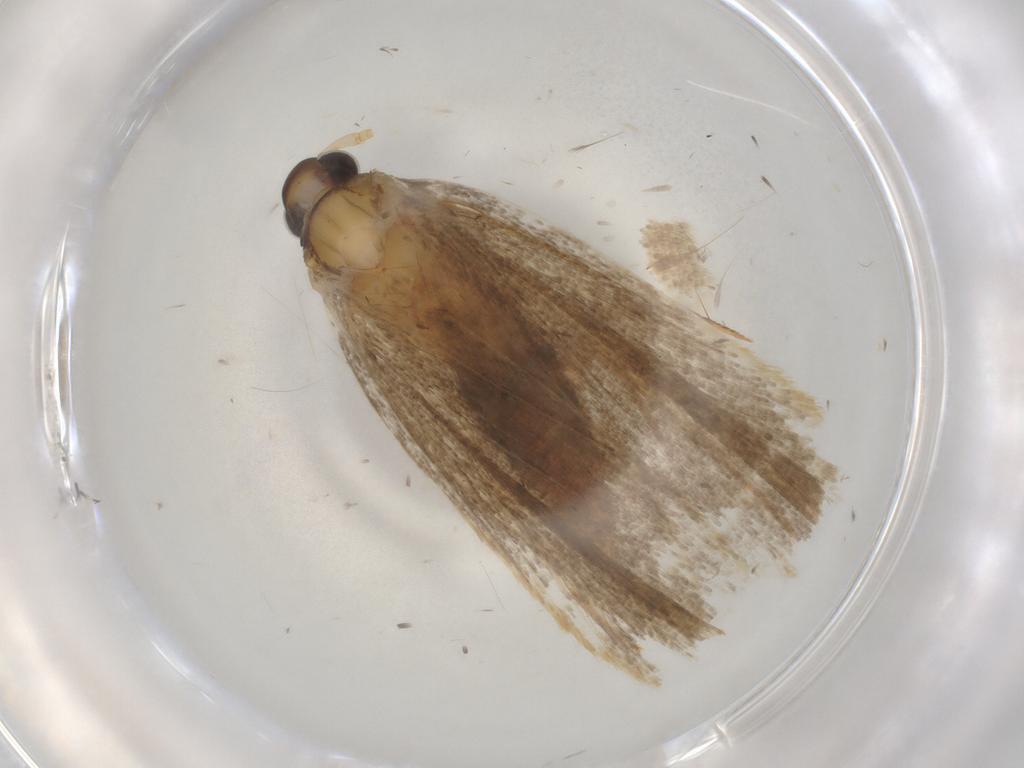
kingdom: Animalia
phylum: Arthropoda
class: Insecta
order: Lepidoptera
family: Lecithoceridae
